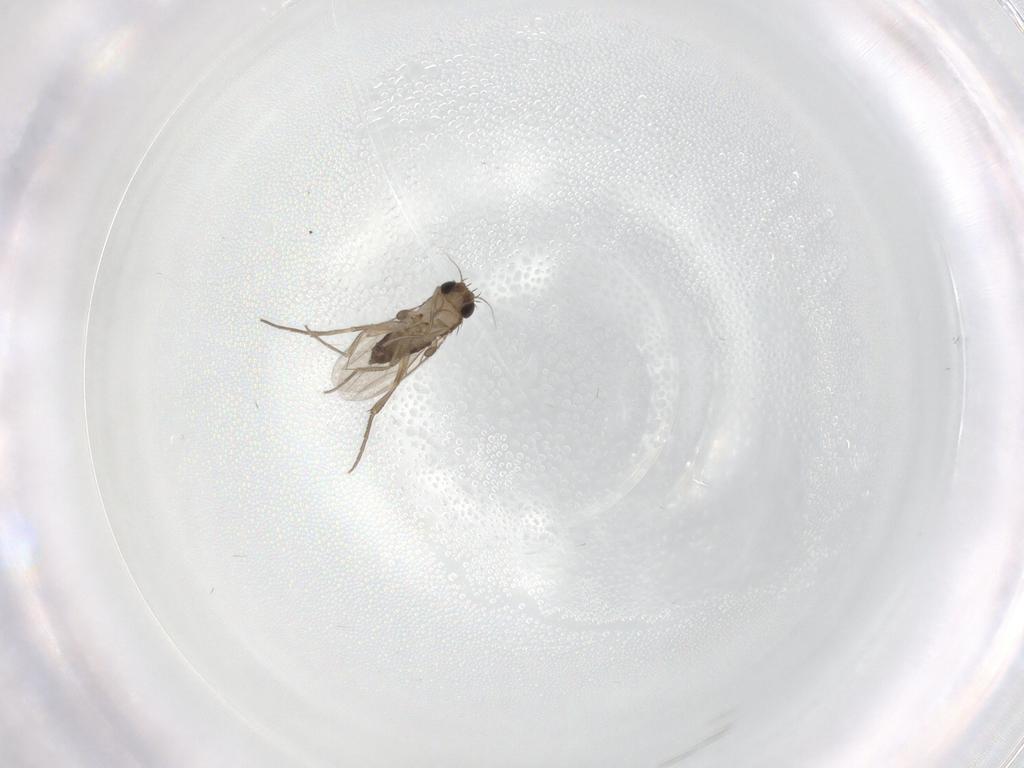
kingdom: Animalia
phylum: Arthropoda
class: Insecta
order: Diptera
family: Phoridae
